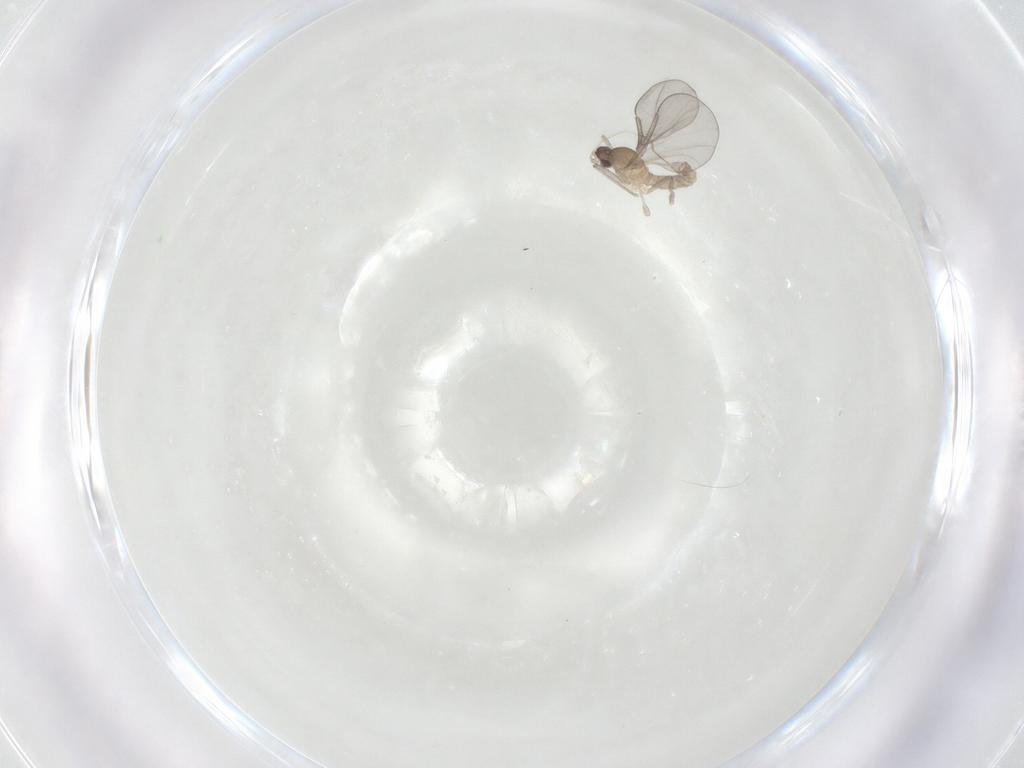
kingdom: Animalia
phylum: Arthropoda
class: Insecta
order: Diptera
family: Cecidomyiidae
